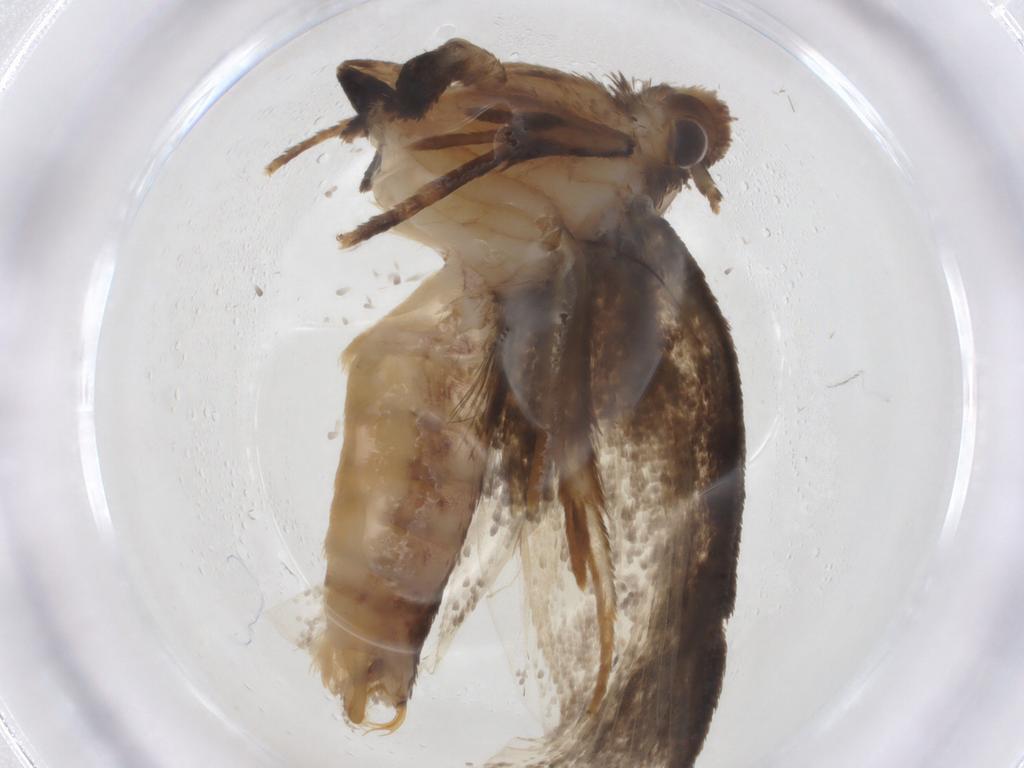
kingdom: Animalia
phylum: Arthropoda
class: Insecta
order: Lepidoptera
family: Tineidae
